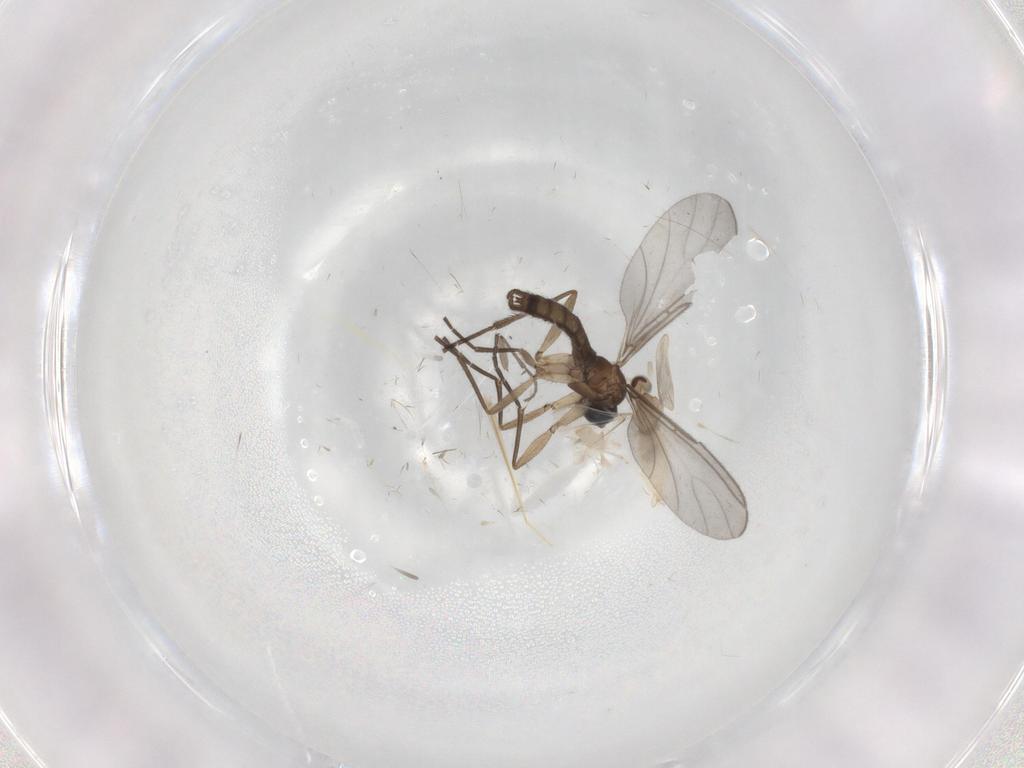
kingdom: Animalia
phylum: Arthropoda
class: Insecta
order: Diptera
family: Sciaridae
